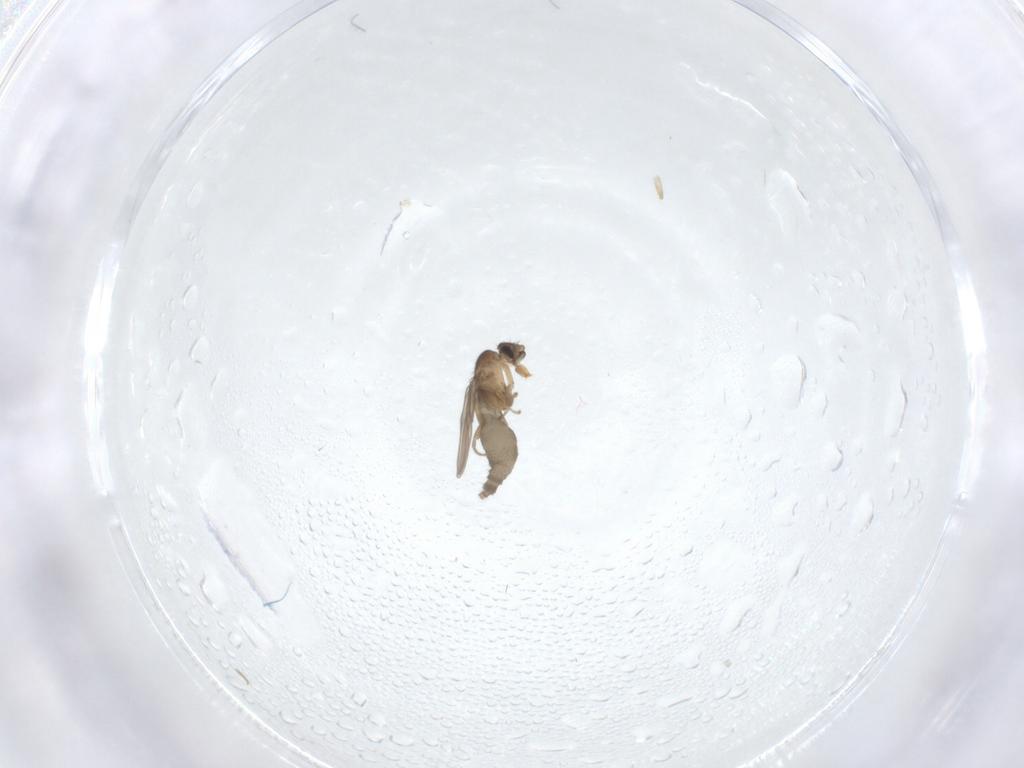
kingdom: Animalia
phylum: Arthropoda
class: Insecta
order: Diptera
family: Phoridae
